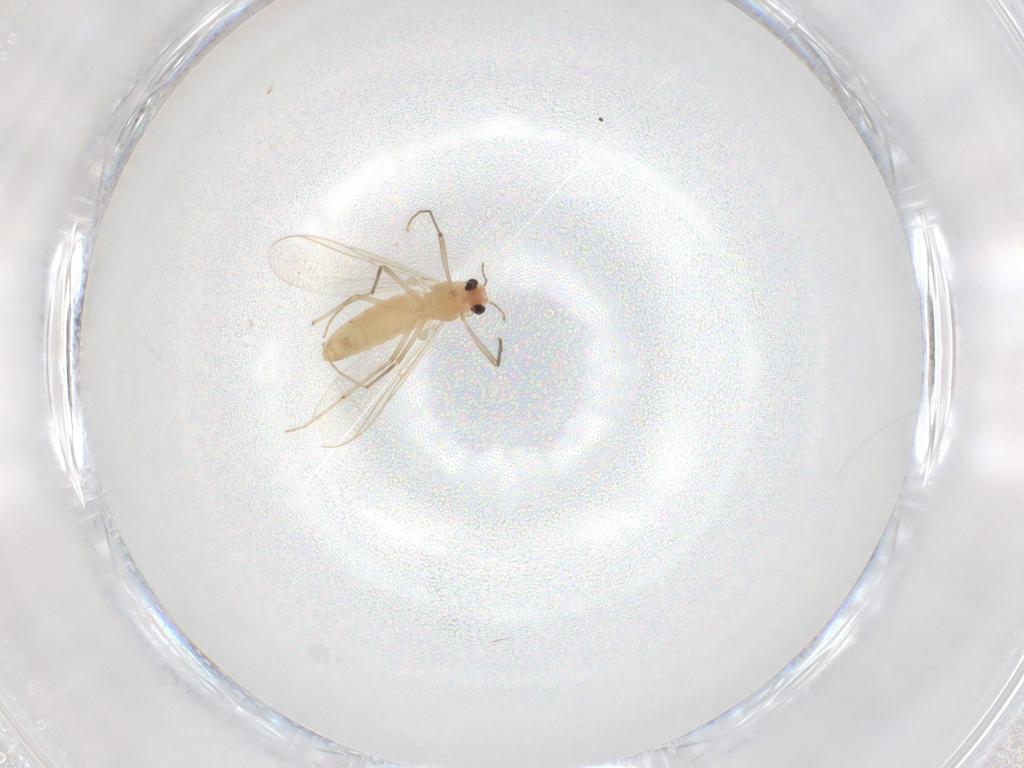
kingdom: Animalia
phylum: Arthropoda
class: Insecta
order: Diptera
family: Chironomidae
